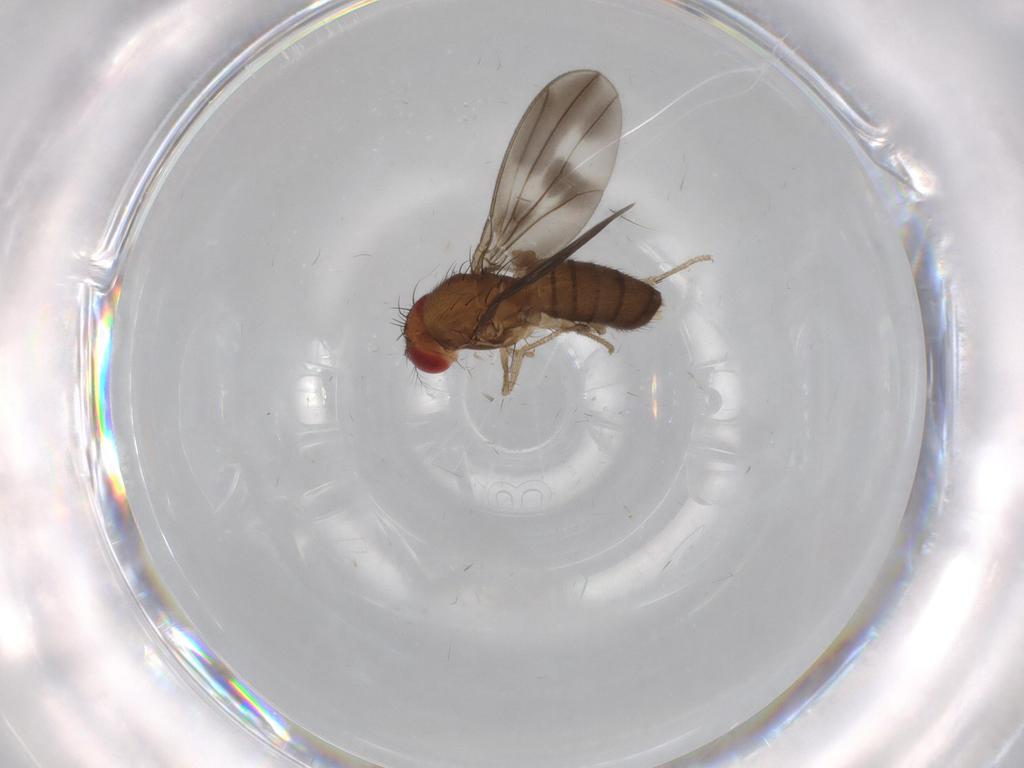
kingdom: Animalia
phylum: Arthropoda
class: Insecta
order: Diptera
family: Drosophilidae
